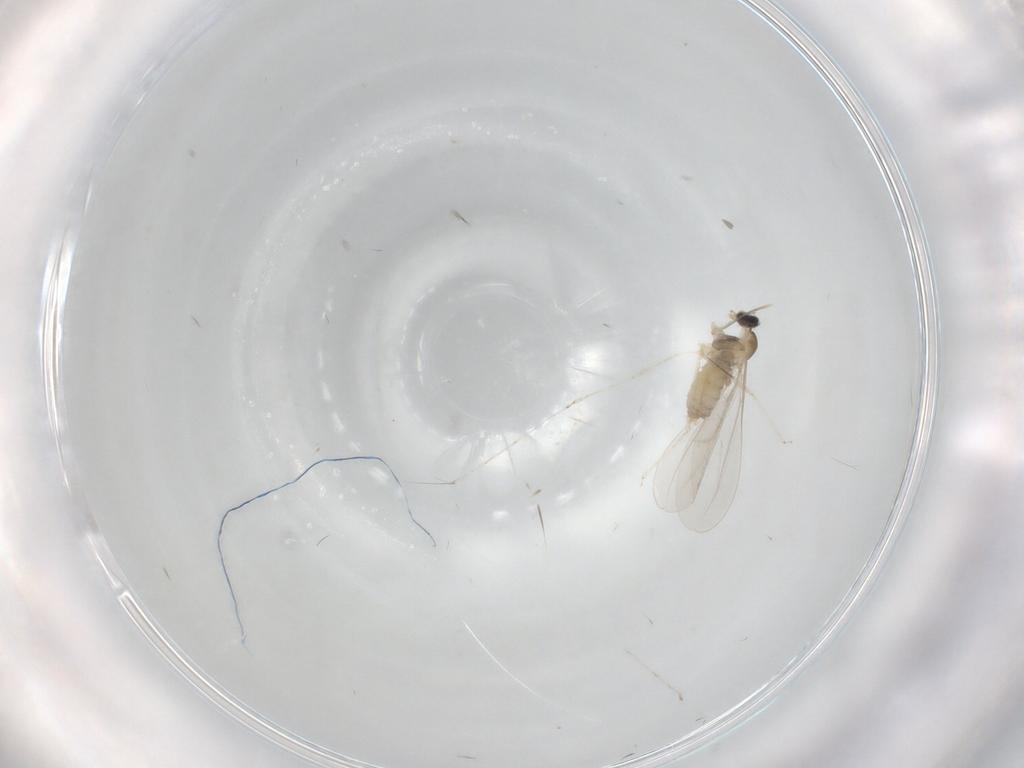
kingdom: Animalia
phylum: Arthropoda
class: Insecta
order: Diptera
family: Cecidomyiidae
